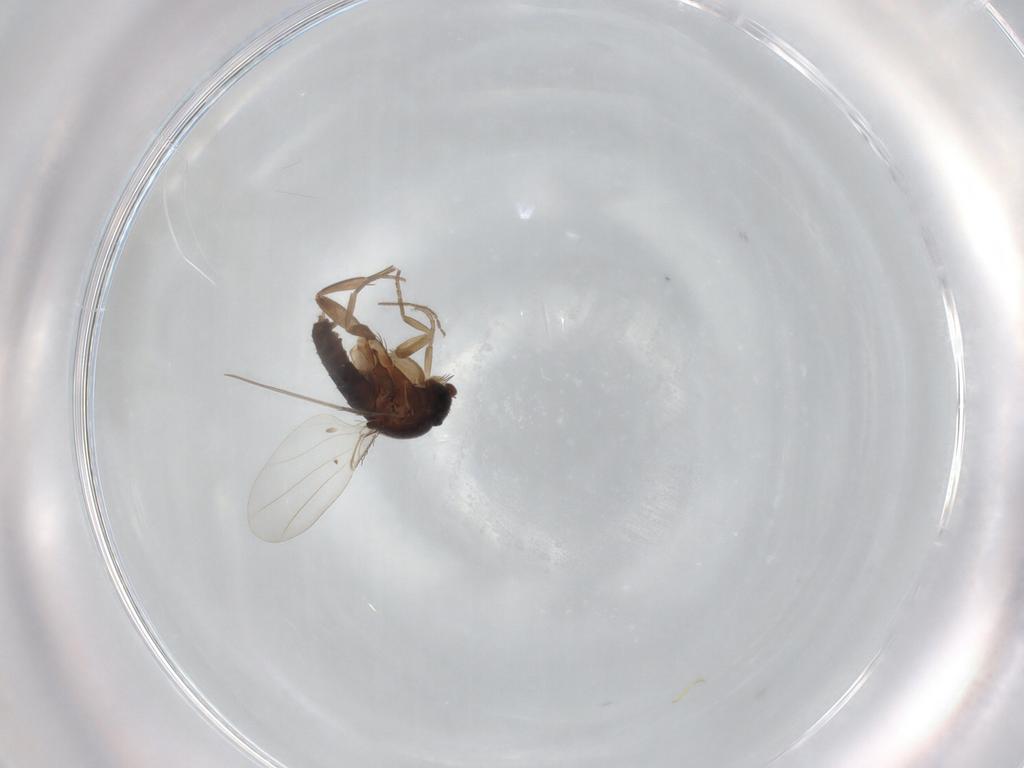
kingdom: Animalia
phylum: Arthropoda
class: Insecta
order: Diptera
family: Phoridae
